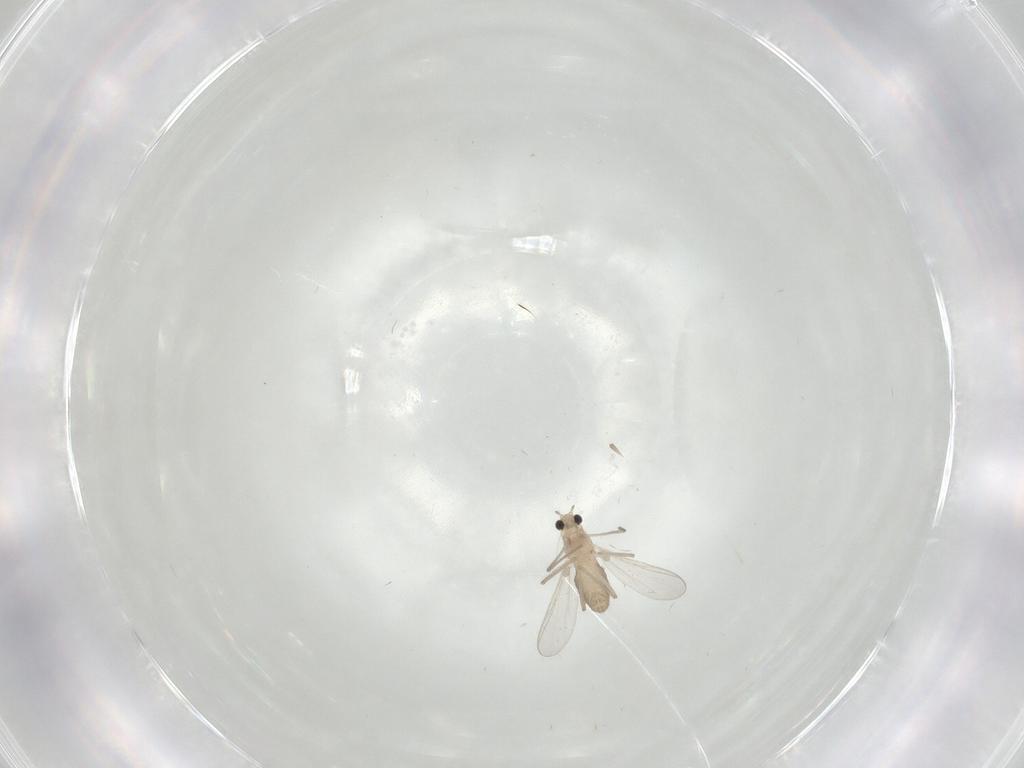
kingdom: Animalia
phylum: Arthropoda
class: Insecta
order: Diptera
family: Chironomidae
